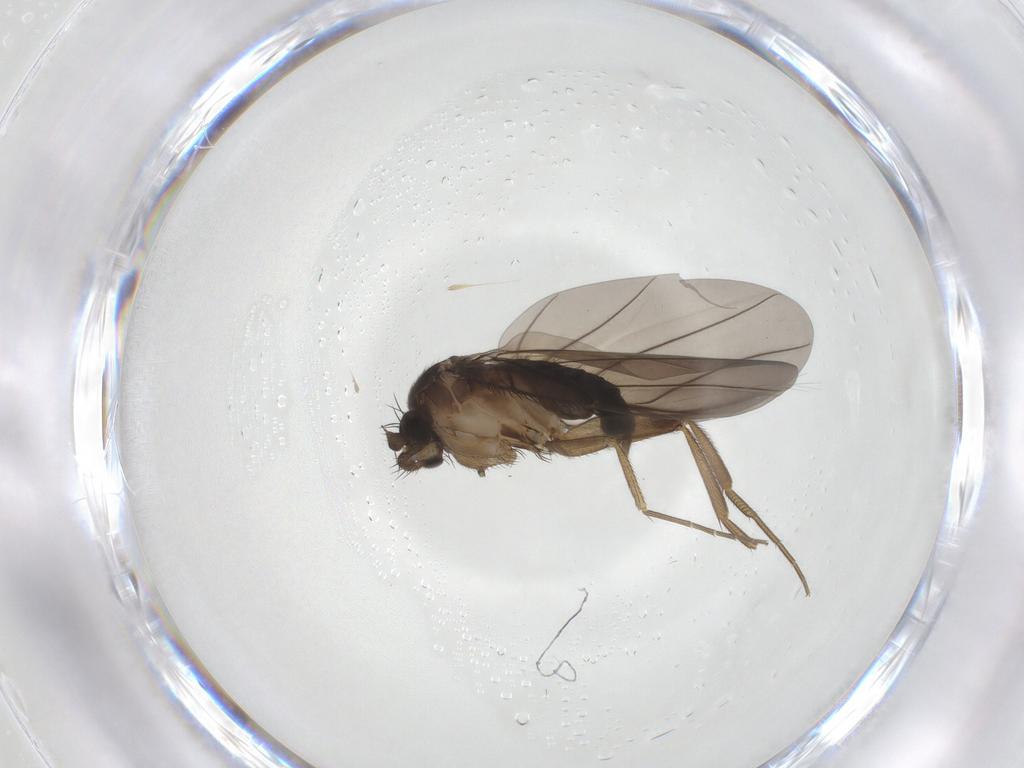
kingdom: Animalia
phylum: Arthropoda
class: Insecta
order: Diptera
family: Phoridae
